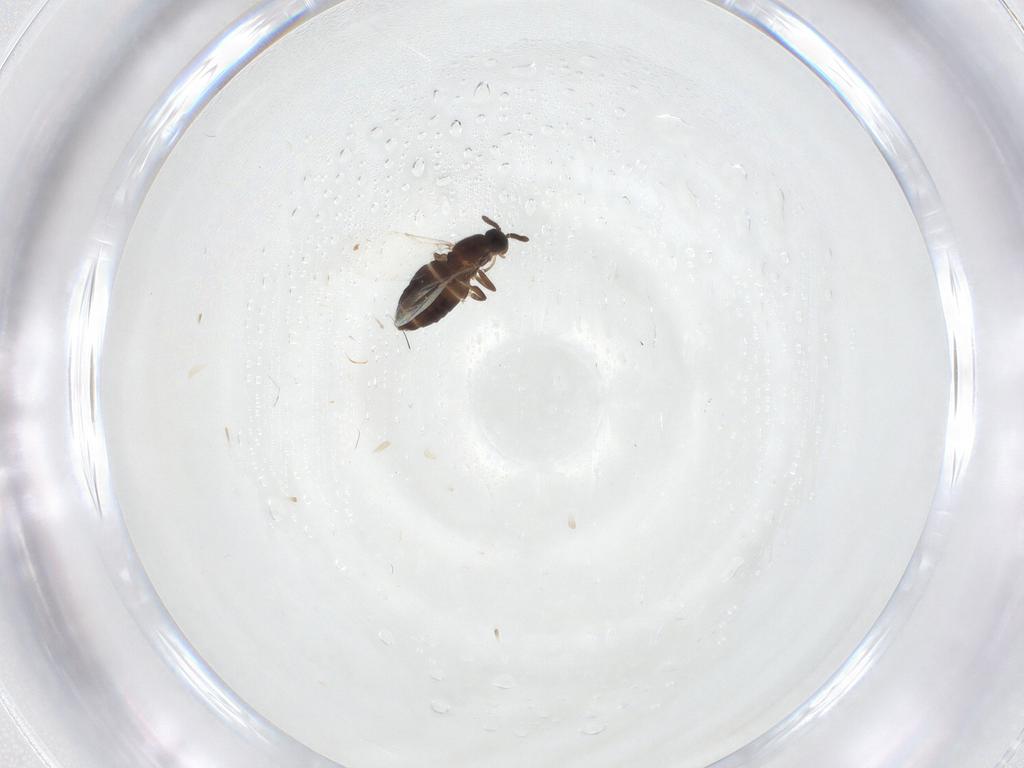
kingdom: Animalia
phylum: Arthropoda
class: Insecta
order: Diptera
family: Scatopsidae
